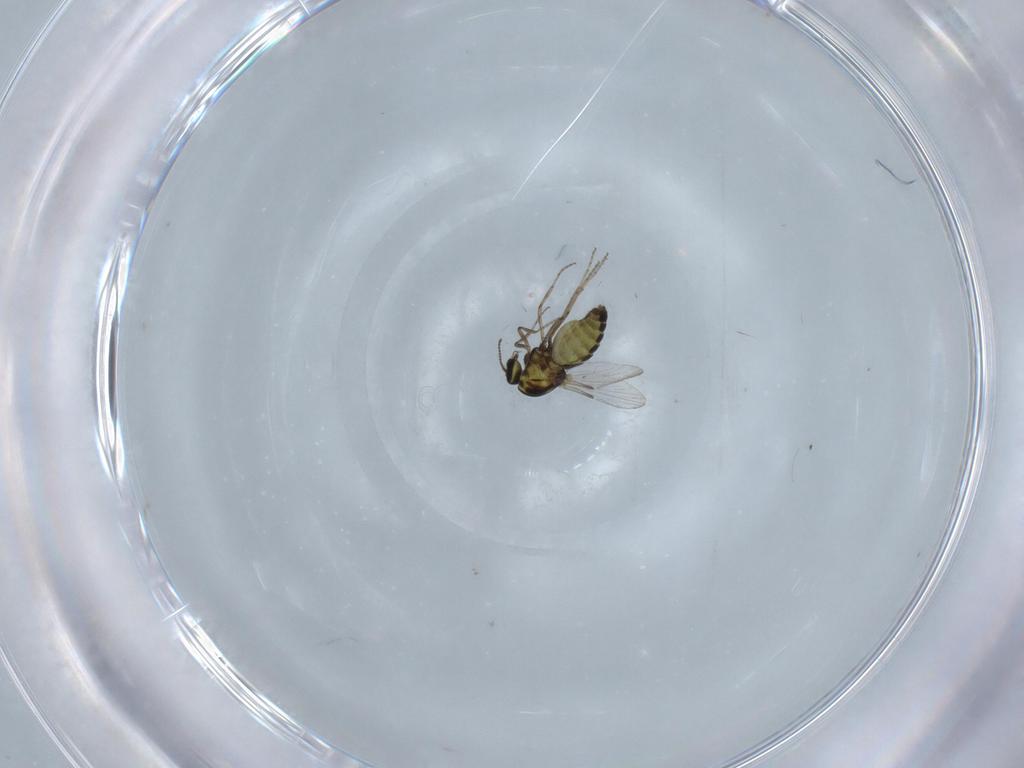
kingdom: Animalia
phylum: Arthropoda
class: Insecta
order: Diptera
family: Ceratopogonidae
